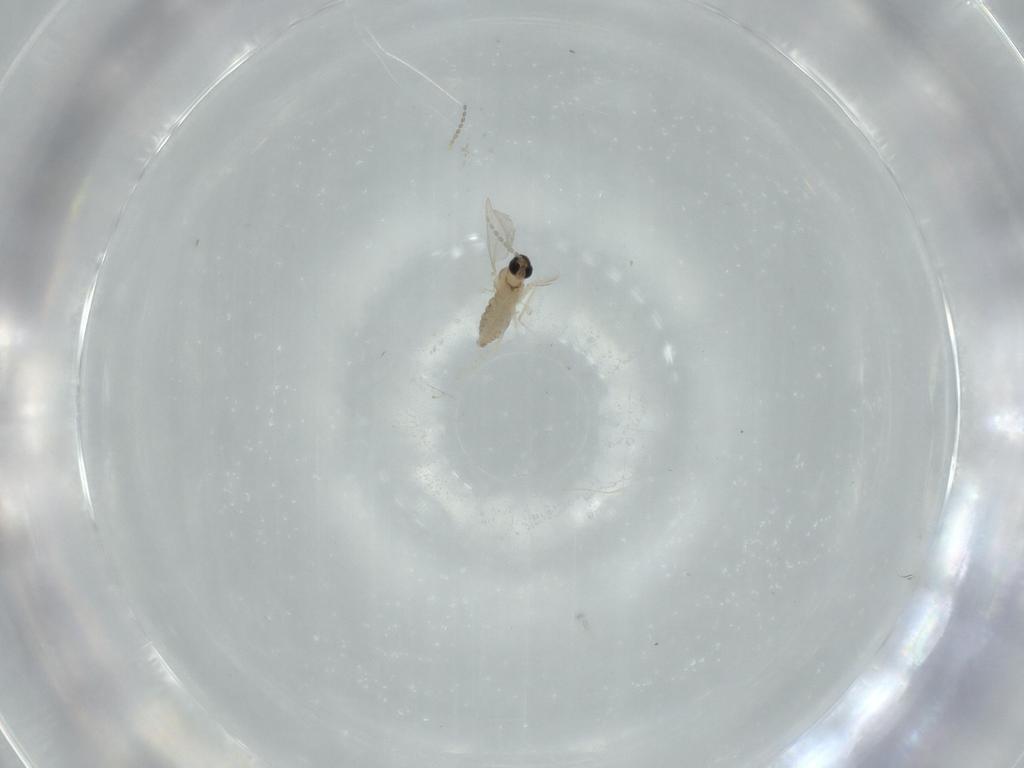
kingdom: Animalia
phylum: Arthropoda
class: Insecta
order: Diptera
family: Cecidomyiidae
